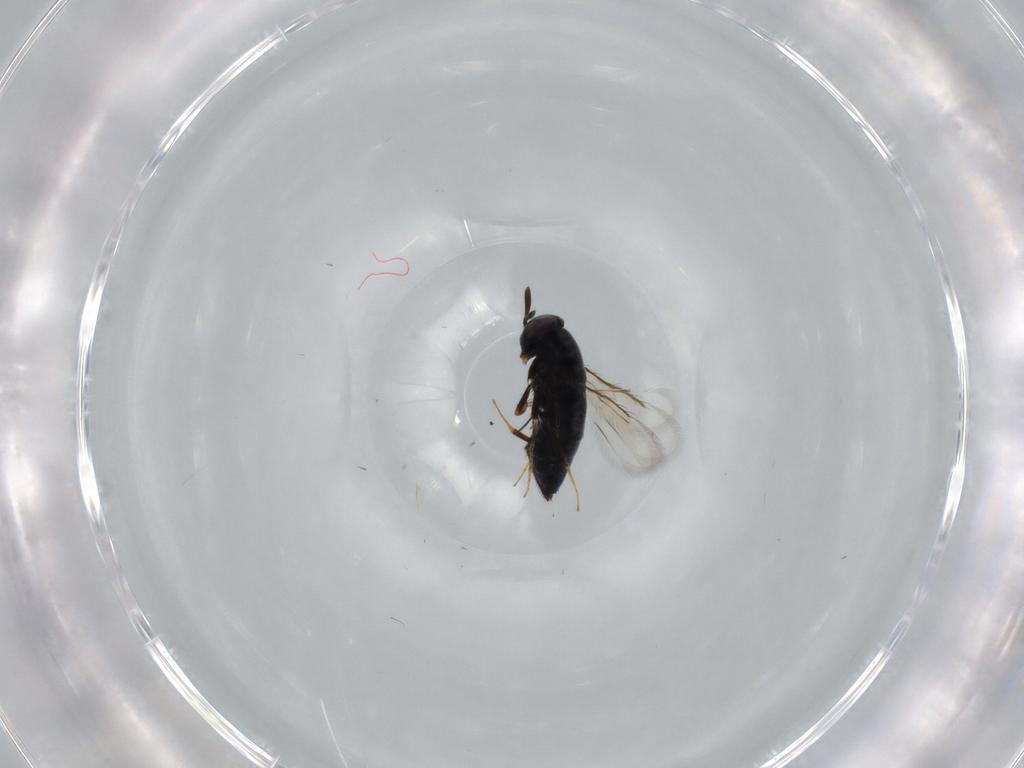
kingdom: Animalia
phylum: Arthropoda
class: Insecta
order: Hymenoptera
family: Signiphoridae
